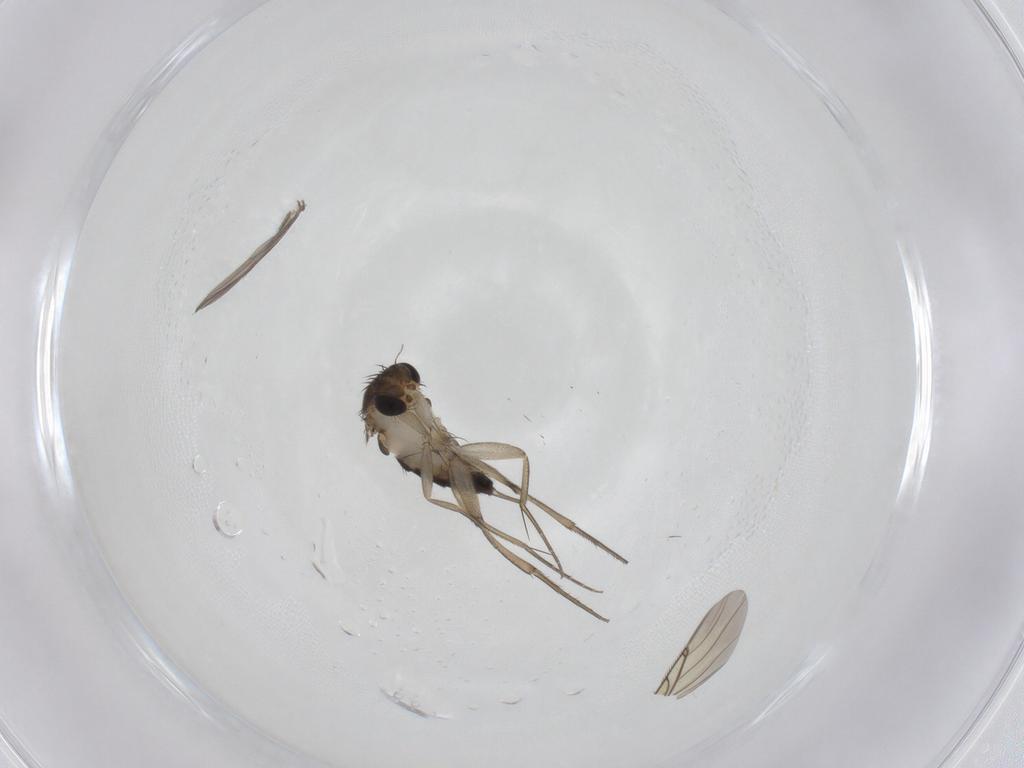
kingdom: Animalia
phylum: Arthropoda
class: Insecta
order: Diptera
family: Phoridae
